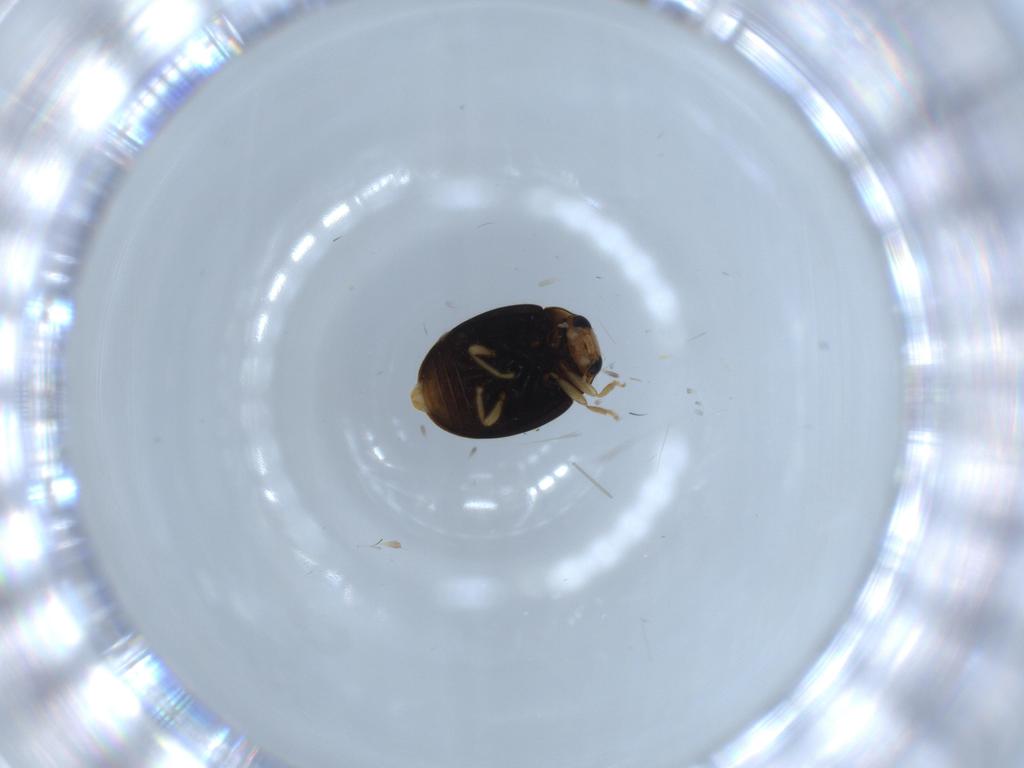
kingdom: Animalia
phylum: Arthropoda
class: Insecta
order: Coleoptera
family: Coccinellidae
